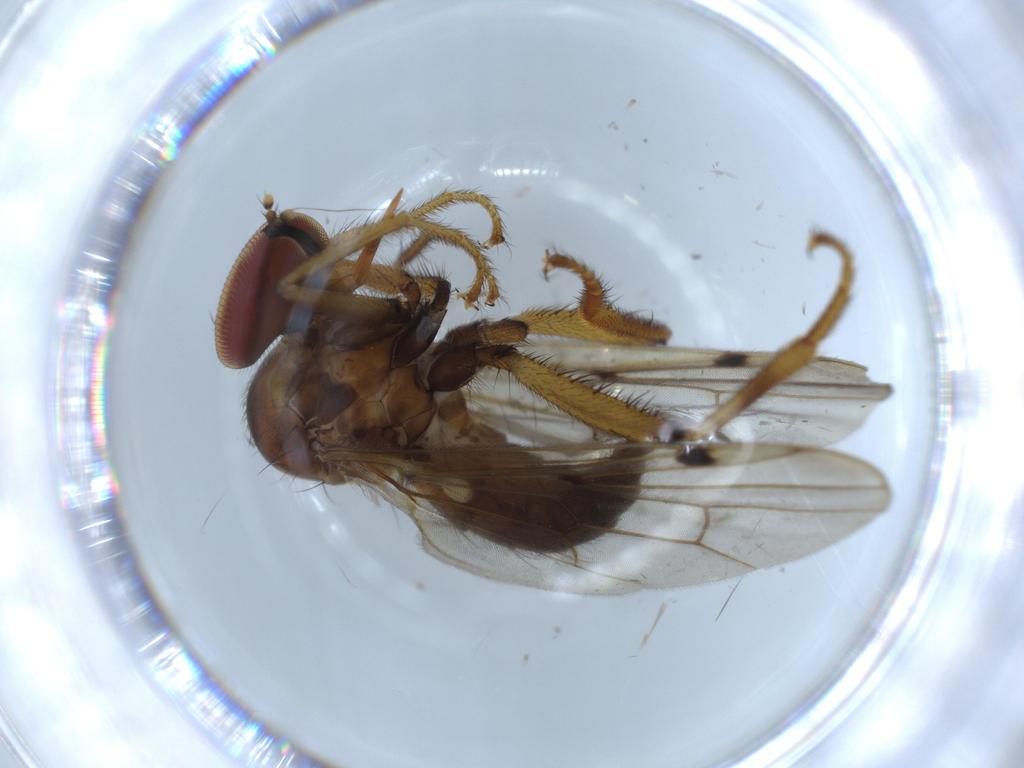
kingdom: Animalia
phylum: Arthropoda
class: Insecta
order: Diptera
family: Hybotidae
